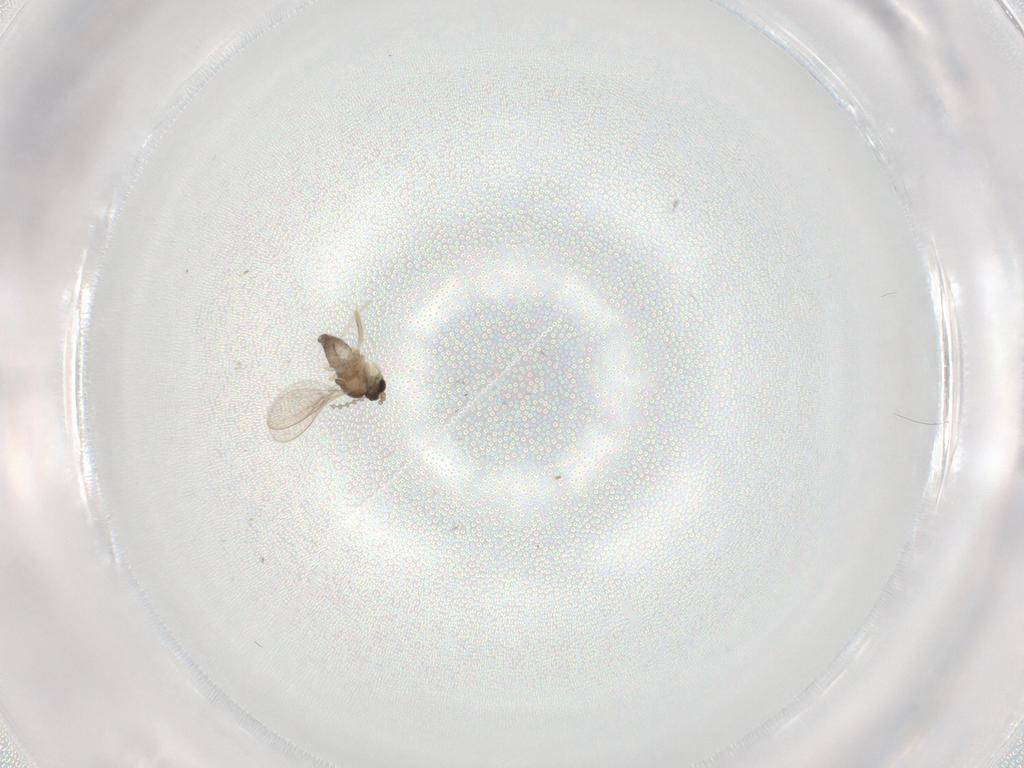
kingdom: Animalia
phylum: Arthropoda
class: Insecta
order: Diptera
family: Cecidomyiidae
